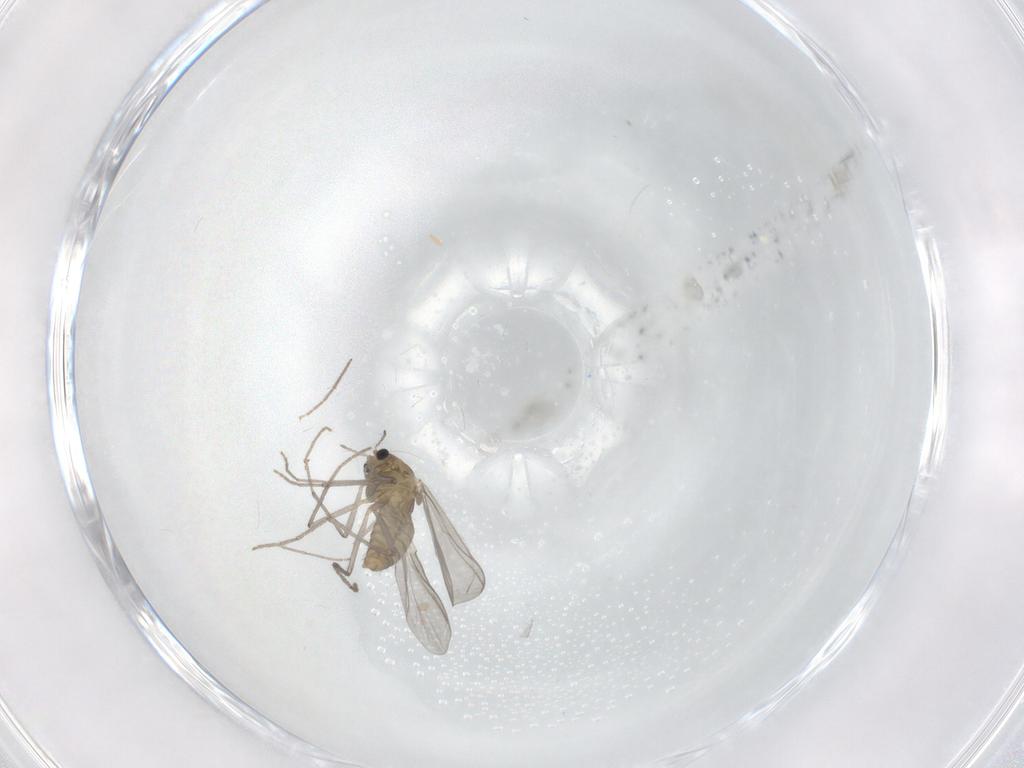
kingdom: Animalia
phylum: Arthropoda
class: Insecta
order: Diptera
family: Chironomidae
